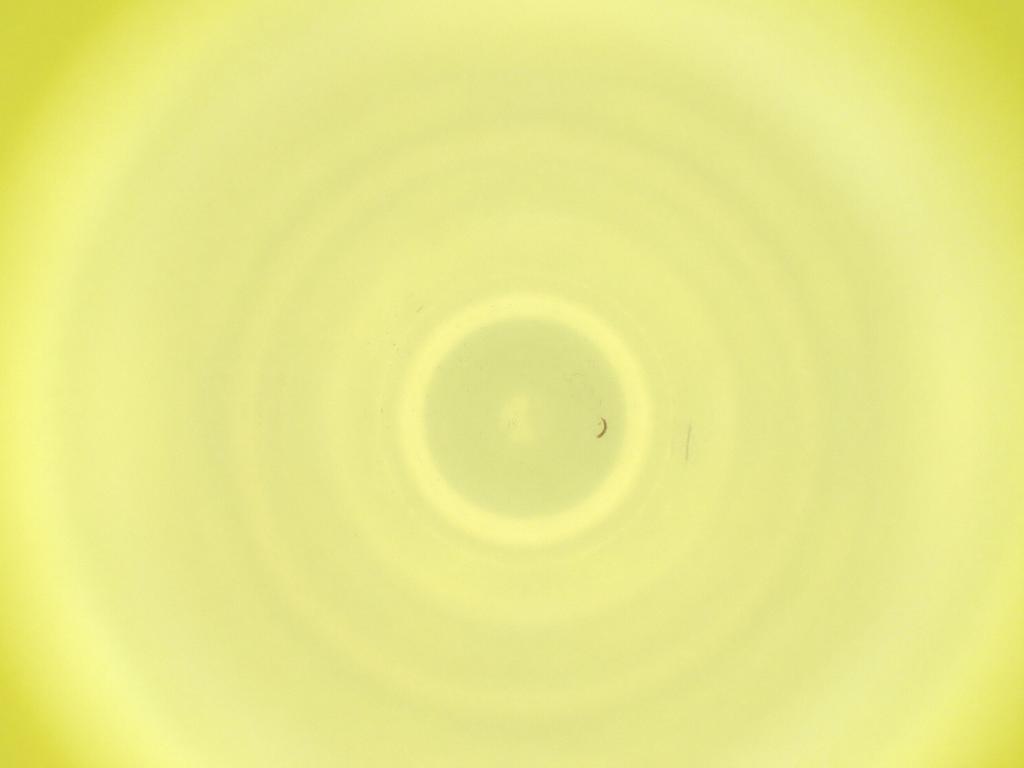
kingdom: Animalia
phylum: Arthropoda
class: Insecta
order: Diptera
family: Cecidomyiidae
